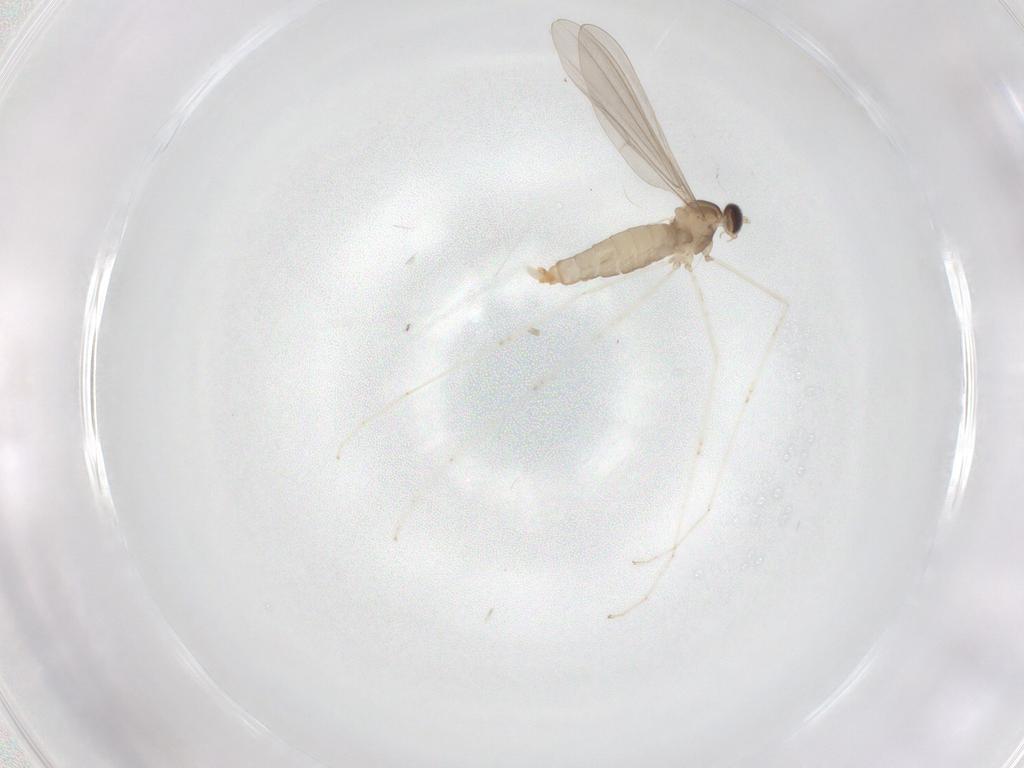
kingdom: Animalia
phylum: Arthropoda
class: Insecta
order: Diptera
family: Cecidomyiidae
